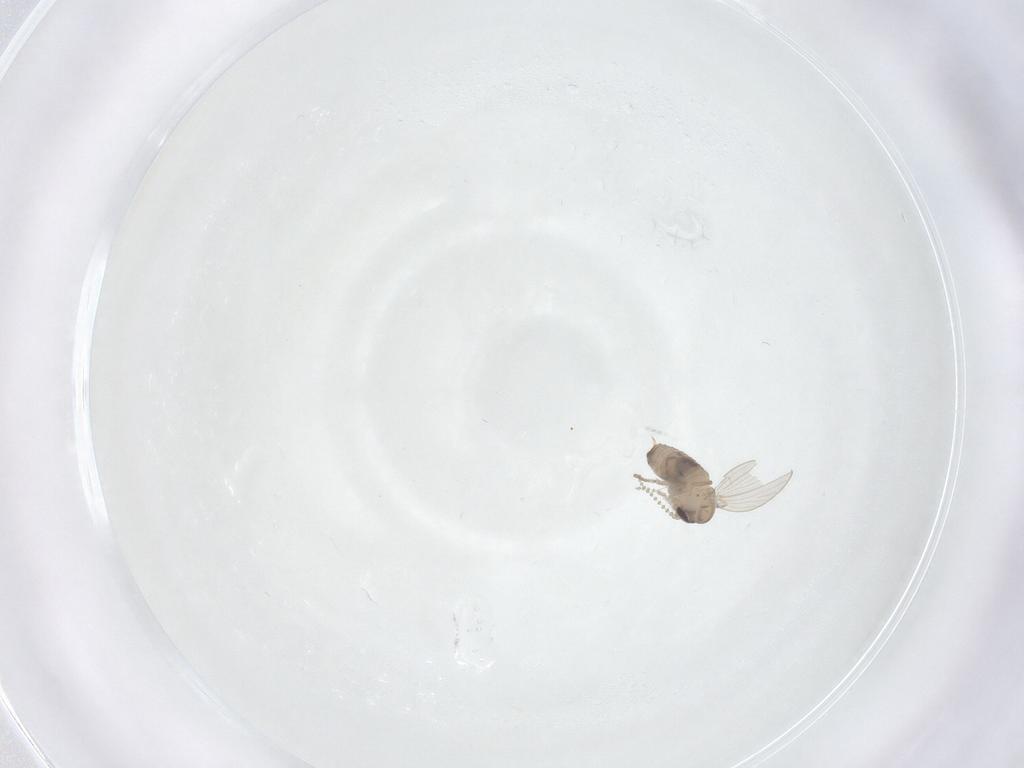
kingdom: Animalia
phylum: Arthropoda
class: Insecta
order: Diptera
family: Psychodidae
